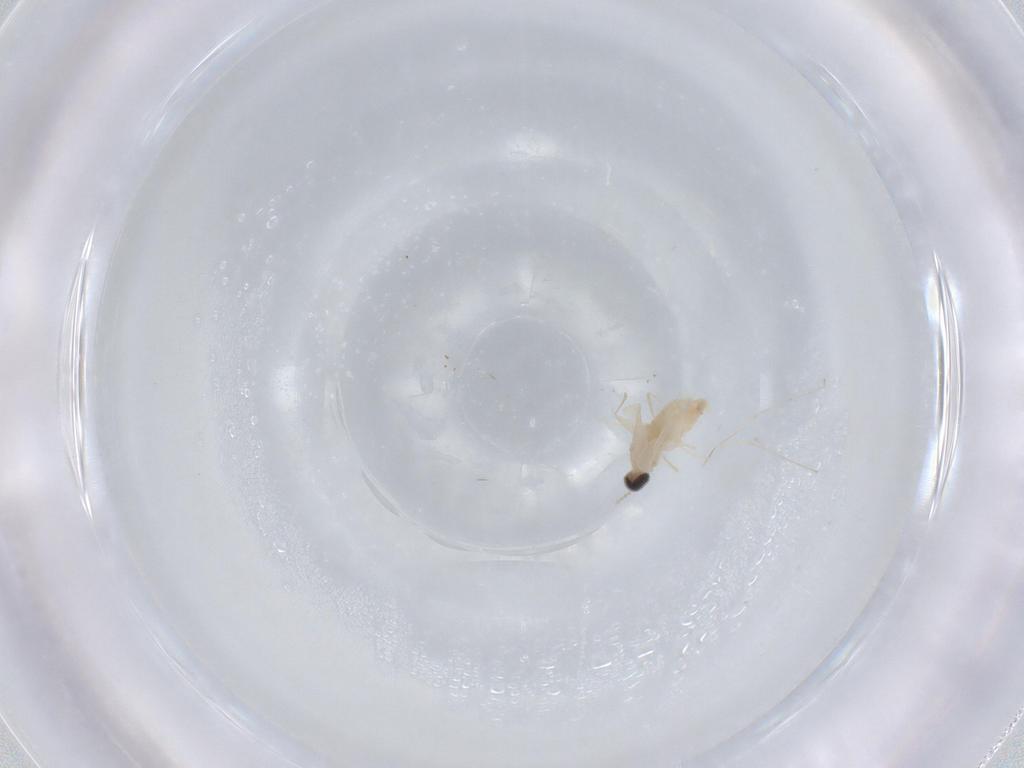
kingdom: Animalia
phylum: Arthropoda
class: Insecta
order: Diptera
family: Cecidomyiidae
